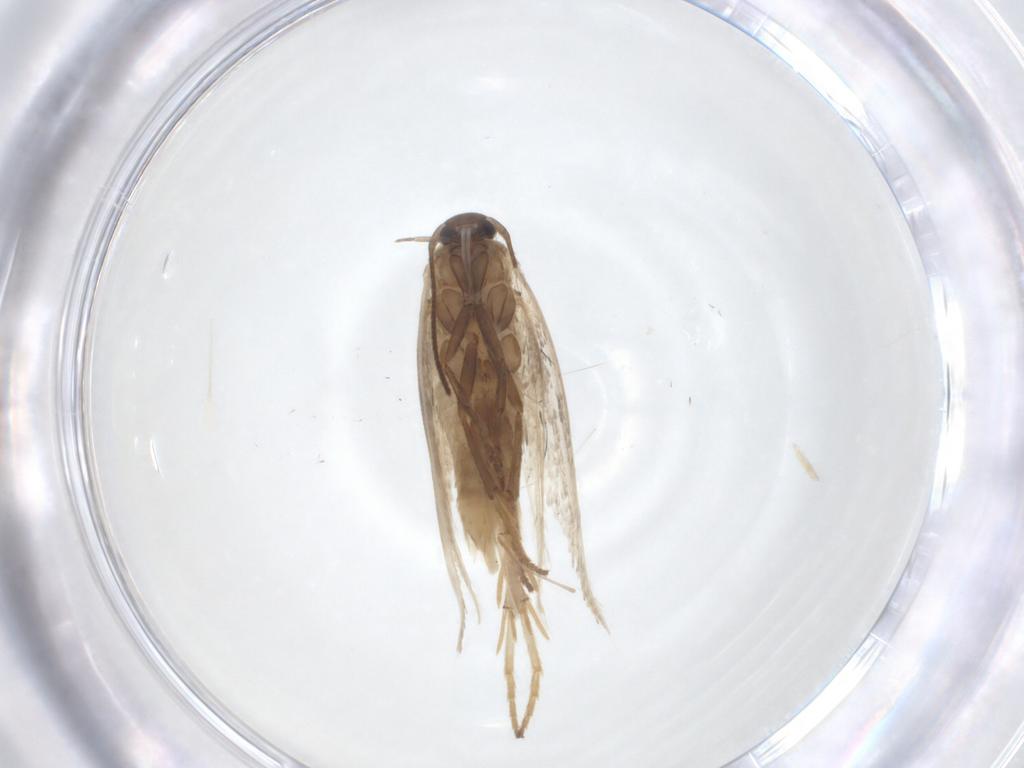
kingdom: Animalia
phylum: Arthropoda
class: Insecta
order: Lepidoptera
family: Elachistidae
